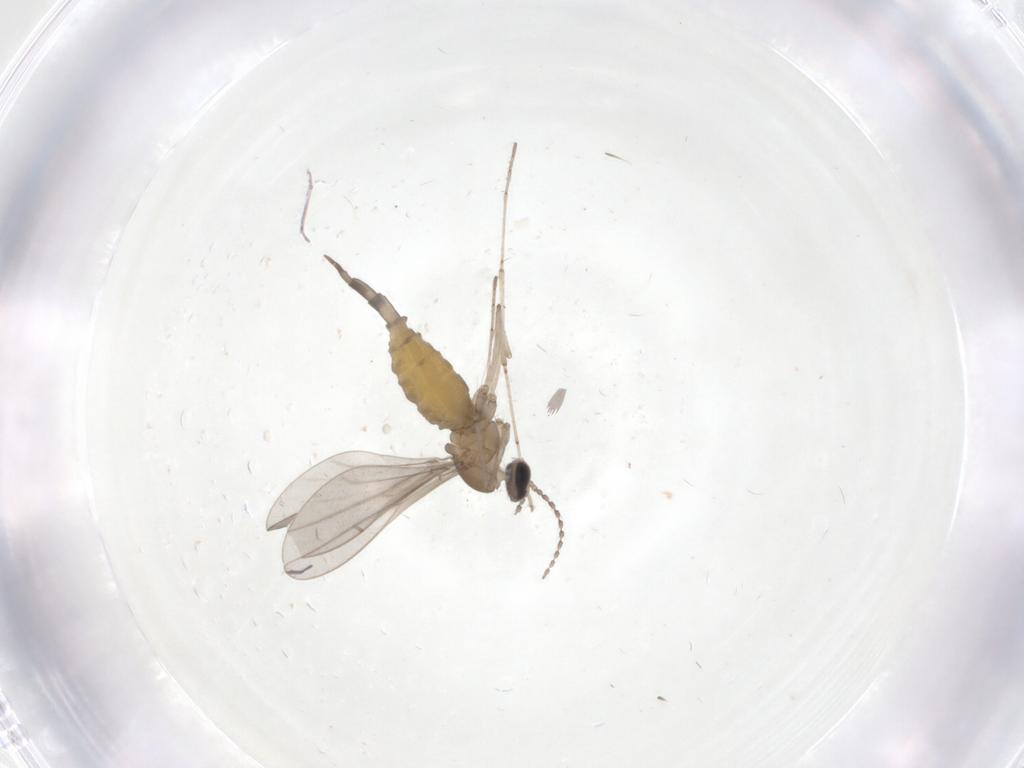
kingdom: Animalia
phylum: Arthropoda
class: Insecta
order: Diptera
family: Cecidomyiidae
